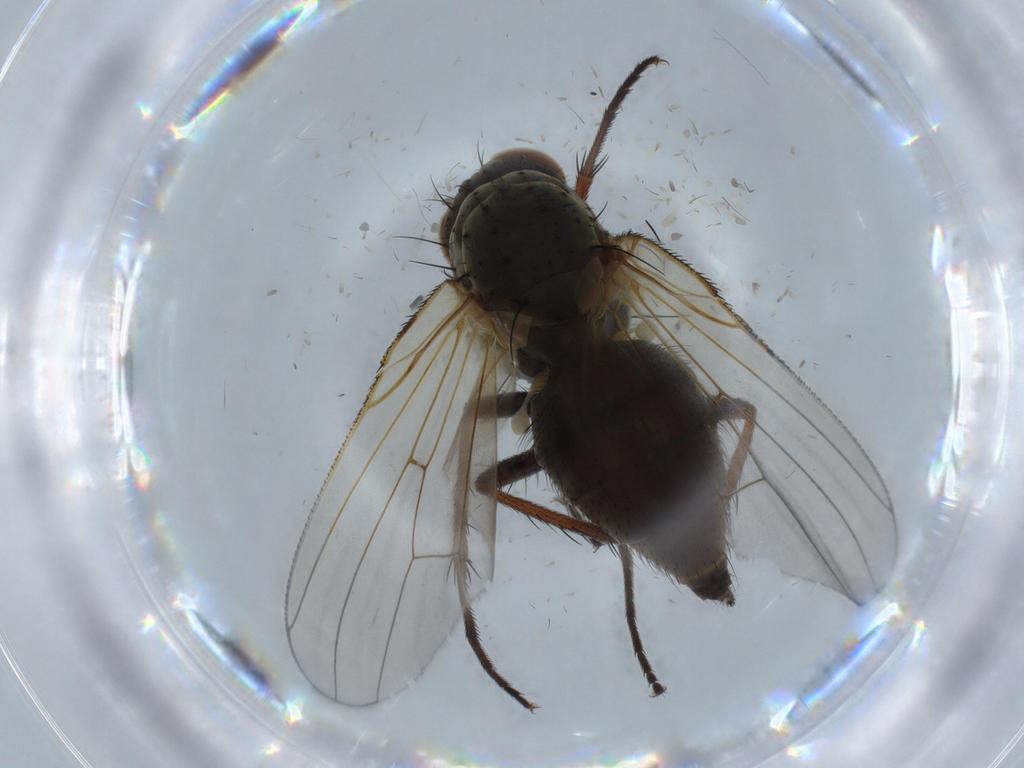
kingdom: Animalia
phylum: Arthropoda
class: Insecta
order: Diptera
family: Anthomyiidae
